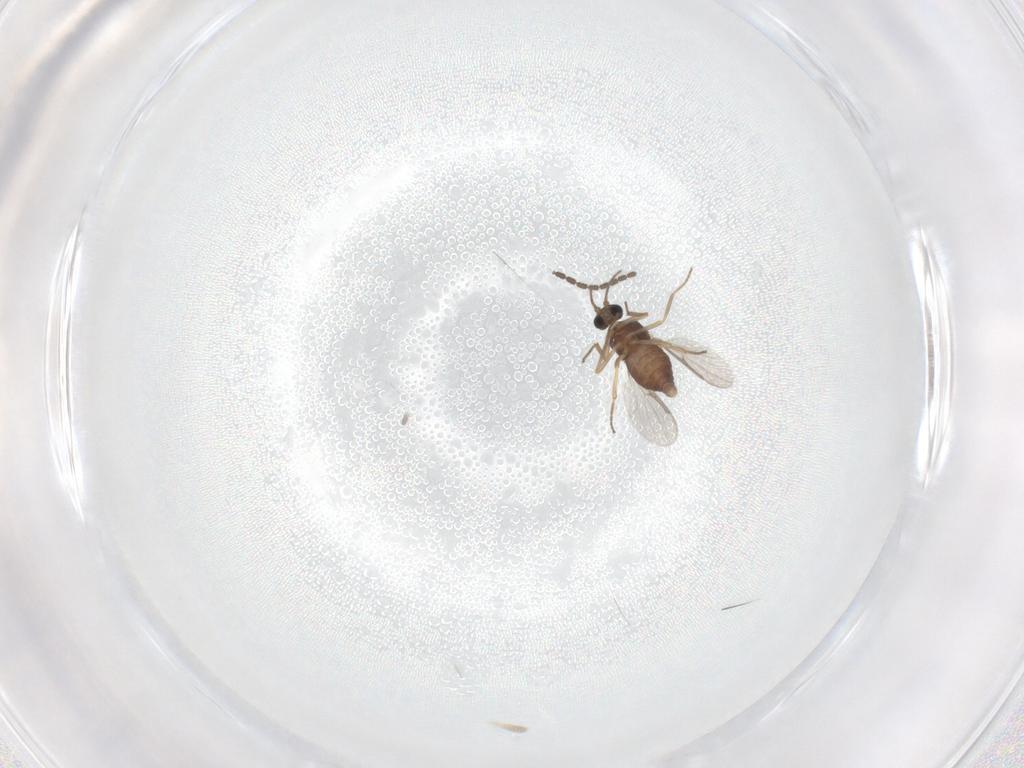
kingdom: Animalia
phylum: Arthropoda
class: Insecta
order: Diptera
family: Ceratopogonidae
